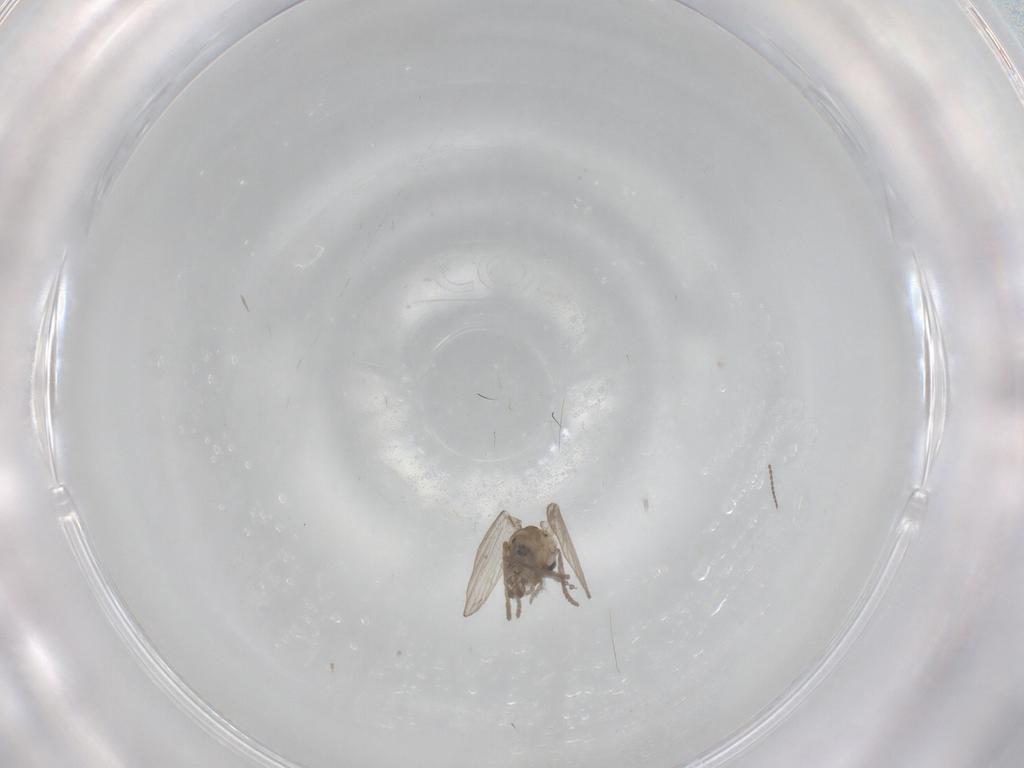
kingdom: Animalia
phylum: Arthropoda
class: Insecta
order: Diptera
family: Psychodidae
